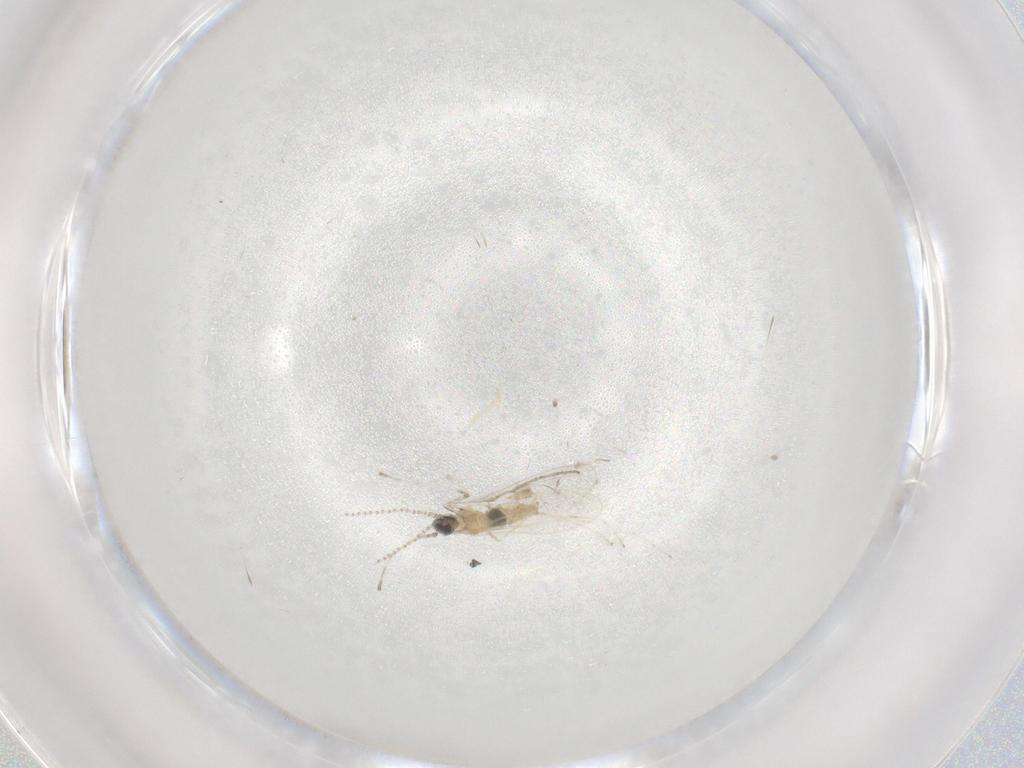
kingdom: Animalia
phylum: Arthropoda
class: Insecta
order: Diptera
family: Cecidomyiidae
